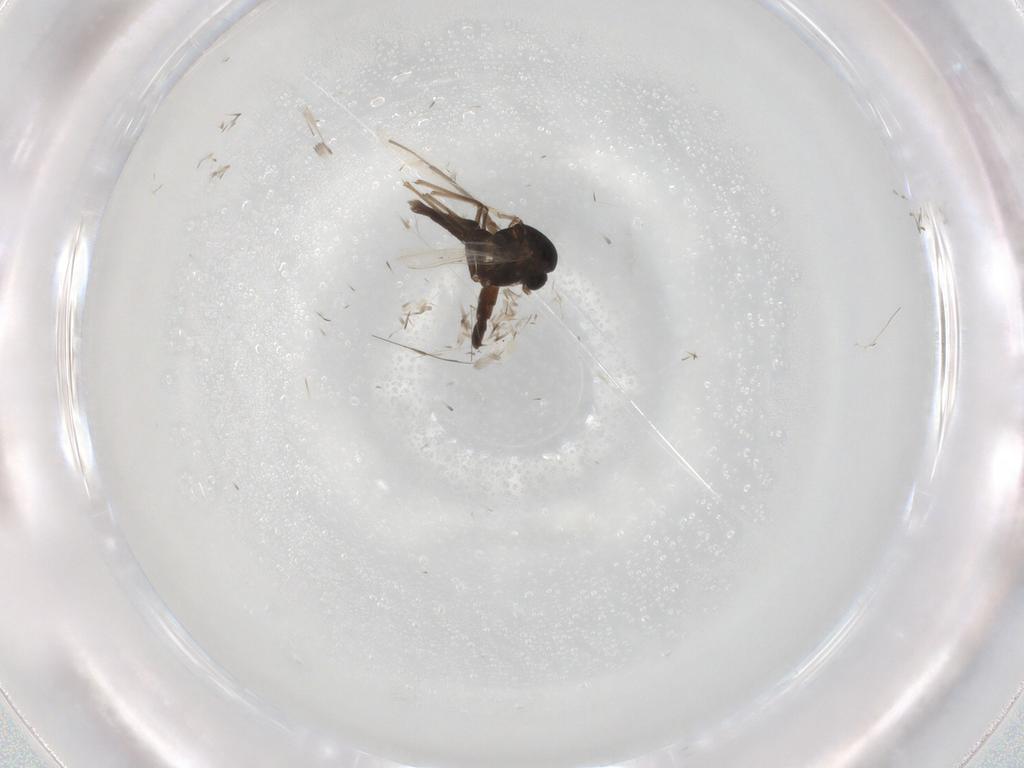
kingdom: Animalia
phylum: Arthropoda
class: Insecta
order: Diptera
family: Chironomidae
